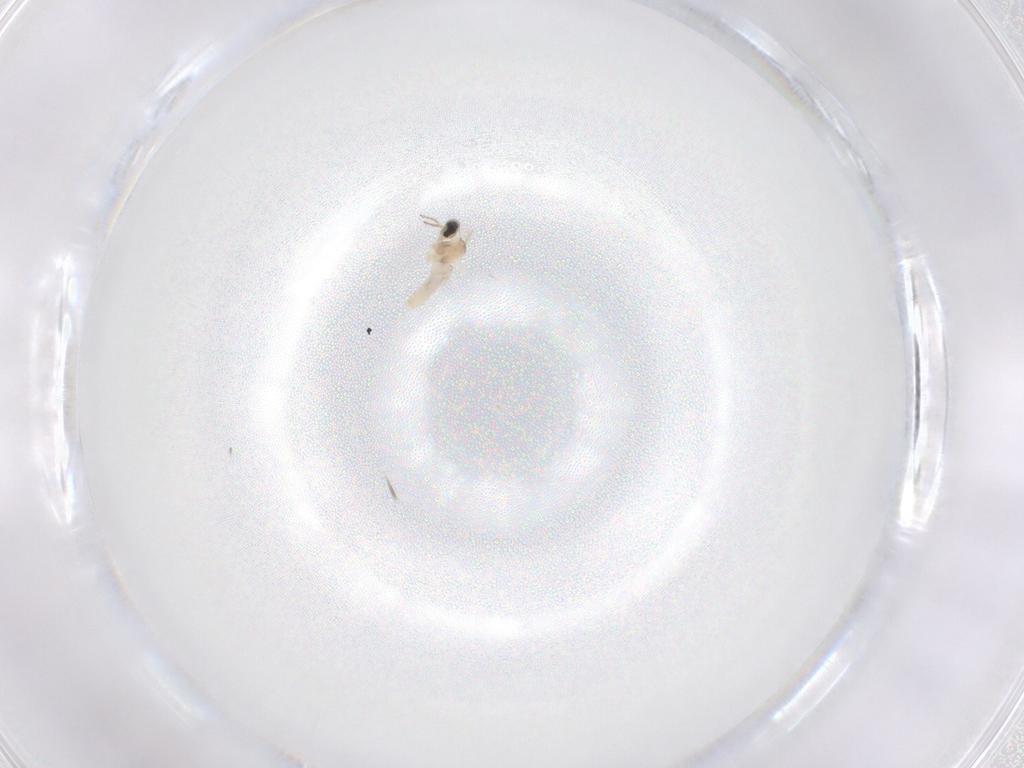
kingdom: Animalia
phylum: Arthropoda
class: Insecta
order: Diptera
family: Cecidomyiidae
